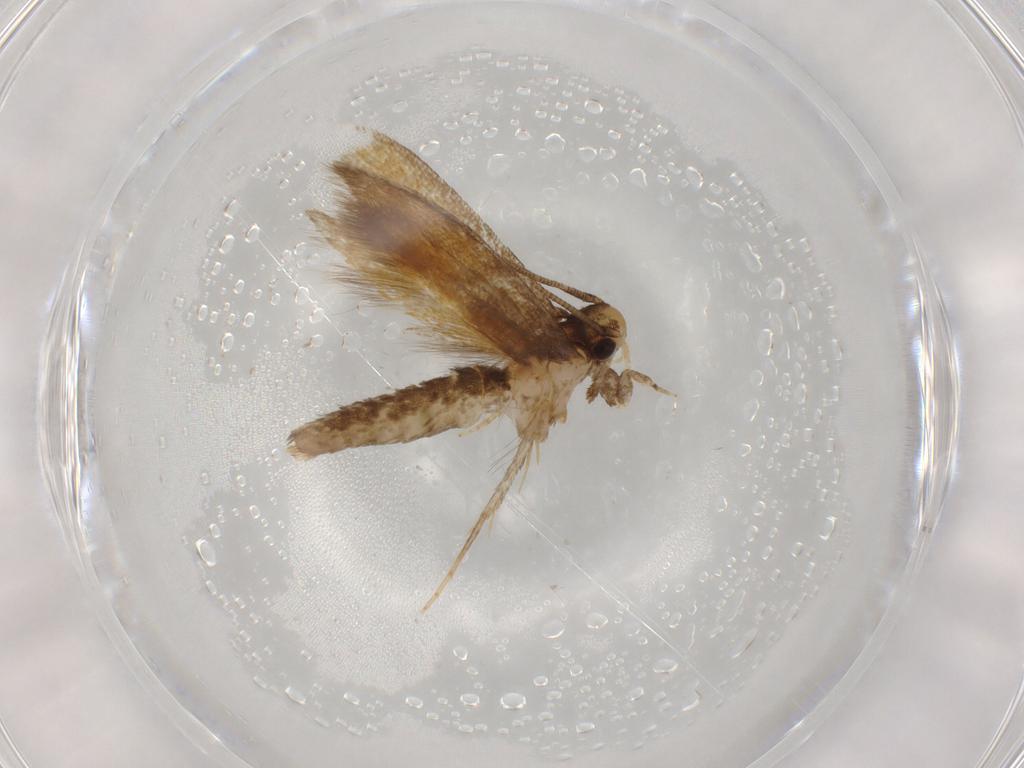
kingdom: Animalia
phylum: Arthropoda
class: Insecta
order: Lepidoptera
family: Tineidae
